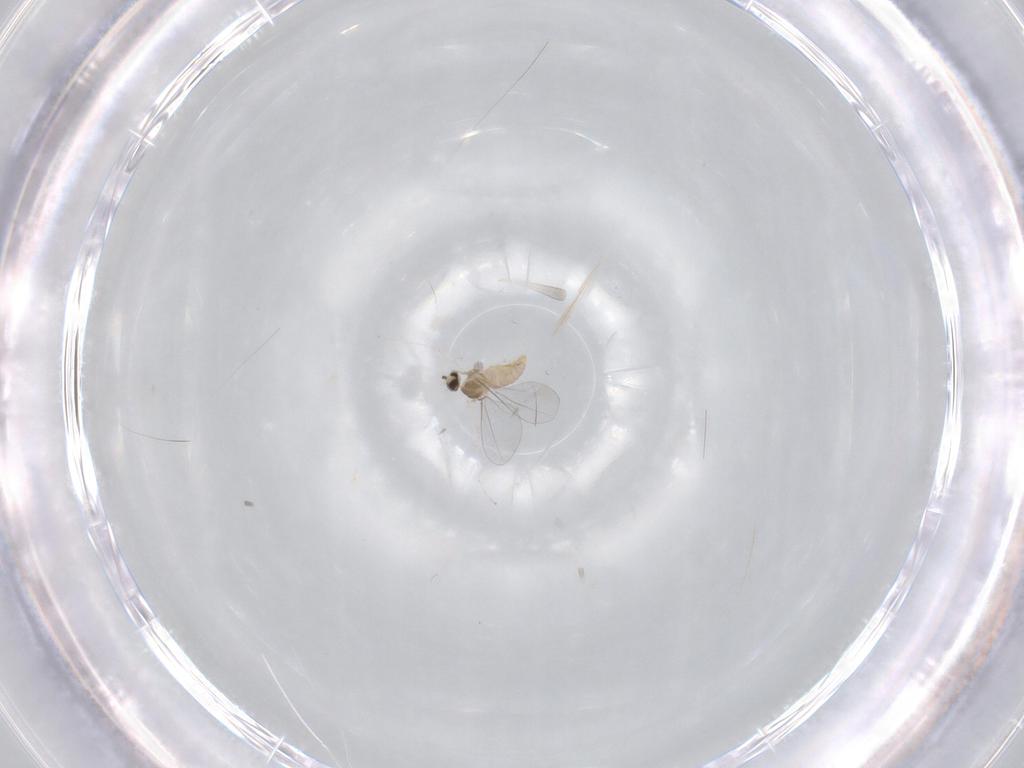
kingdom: Animalia
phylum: Arthropoda
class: Insecta
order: Diptera
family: Cecidomyiidae
